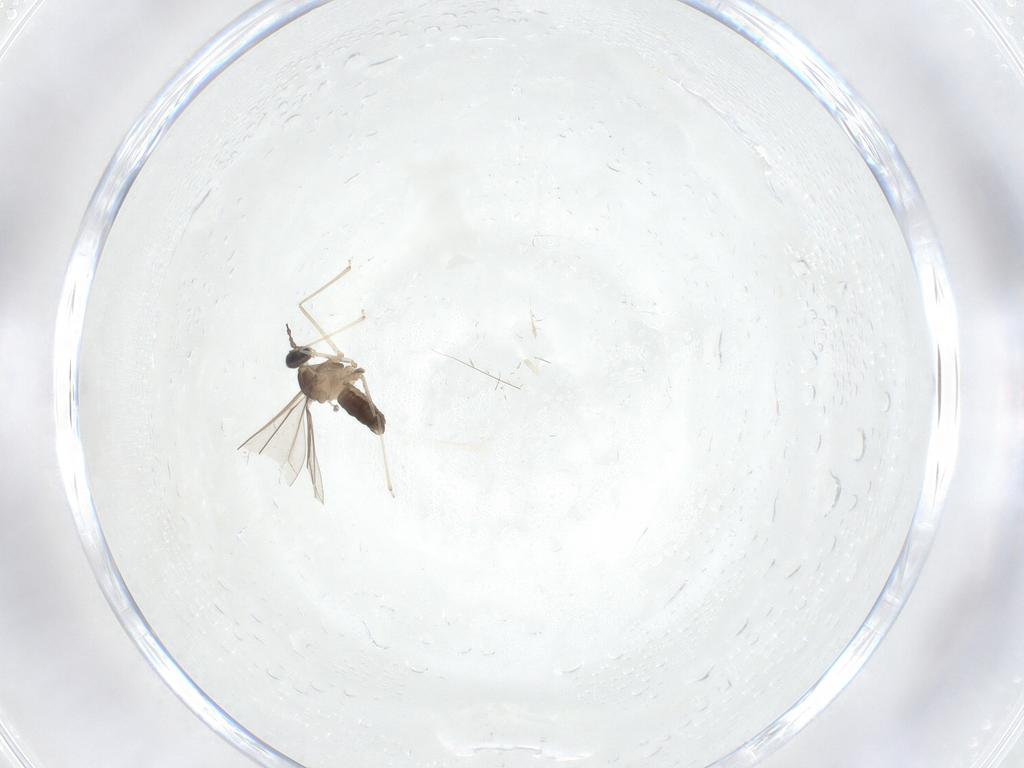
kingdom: Animalia
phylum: Arthropoda
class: Insecta
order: Diptera
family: Cecidomyiidae
